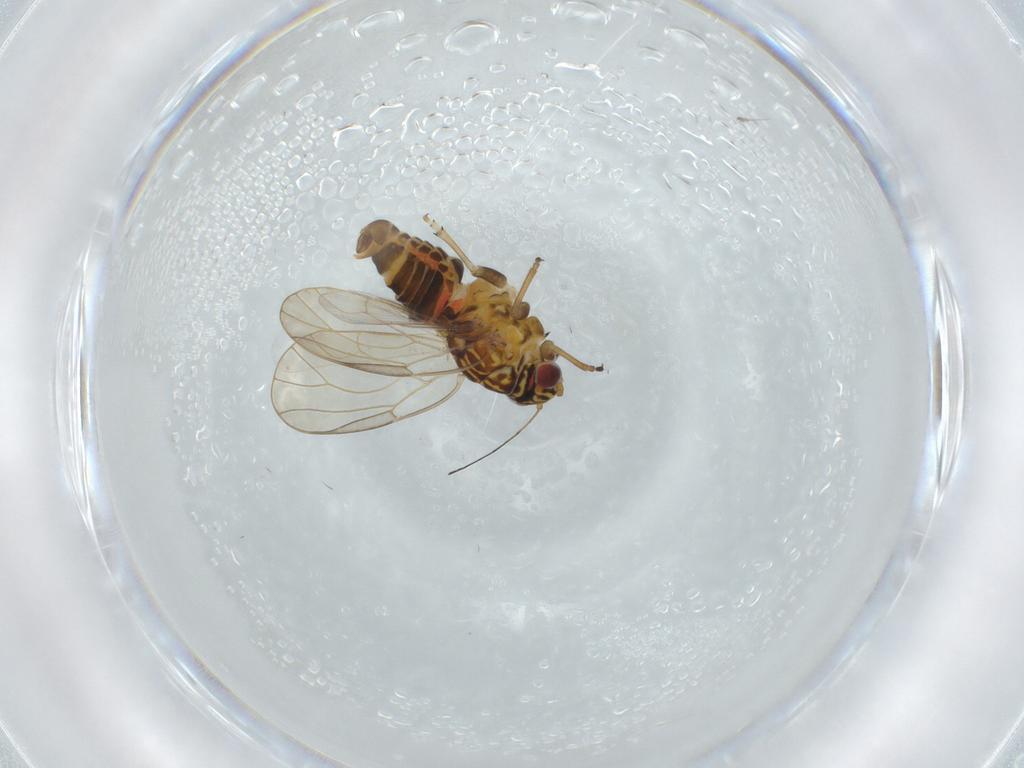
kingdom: Animalia
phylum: Arthropoda
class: Insecta
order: Hemiptera
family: Psyllidae
